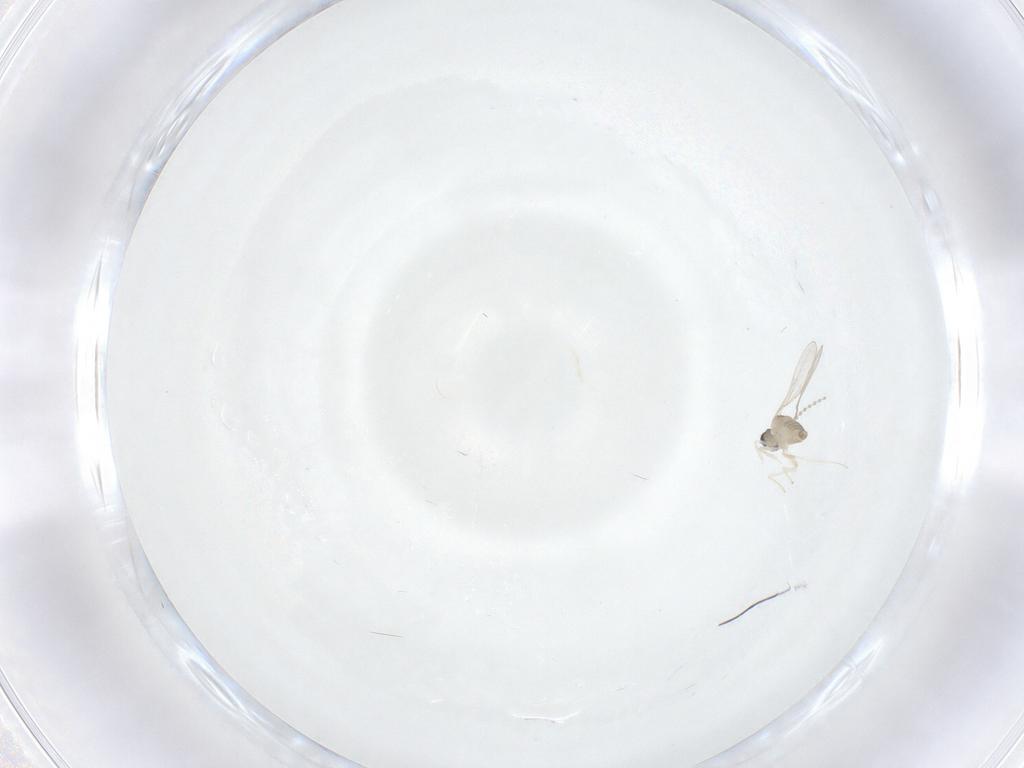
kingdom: Animalia
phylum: Arthropoda
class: Insecta
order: Diptera
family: Cecidomyiidae
